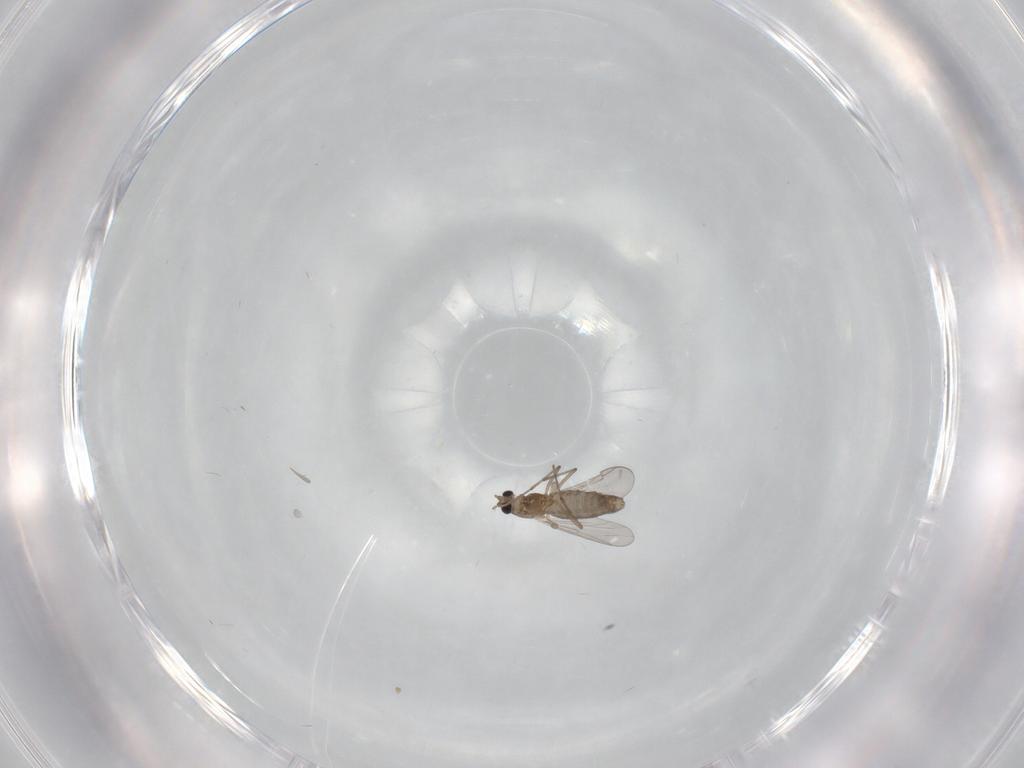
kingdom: Animalia
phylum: Arthropoda
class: Insecta
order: Diptera
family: Chironomidae
